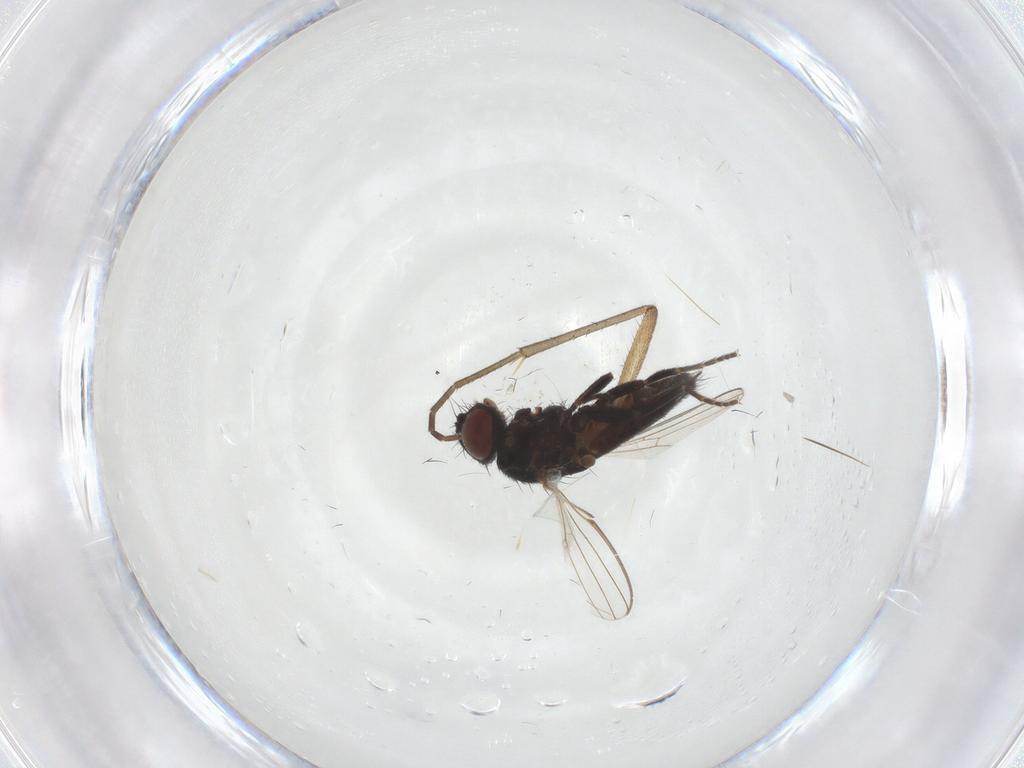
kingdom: Animalia
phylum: Arthropoda
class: Insecta
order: Diptera
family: Milichiidae
